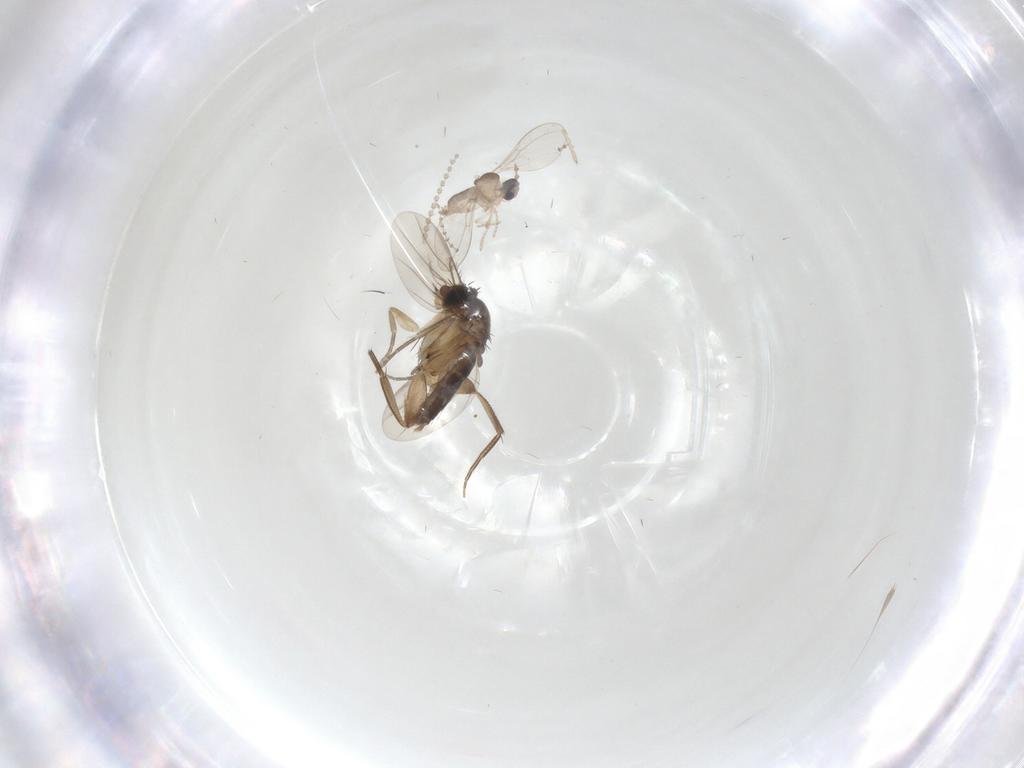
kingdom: Animalia
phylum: Arthropoda
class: Insecta
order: Diptera
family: Cecidomyiidae
